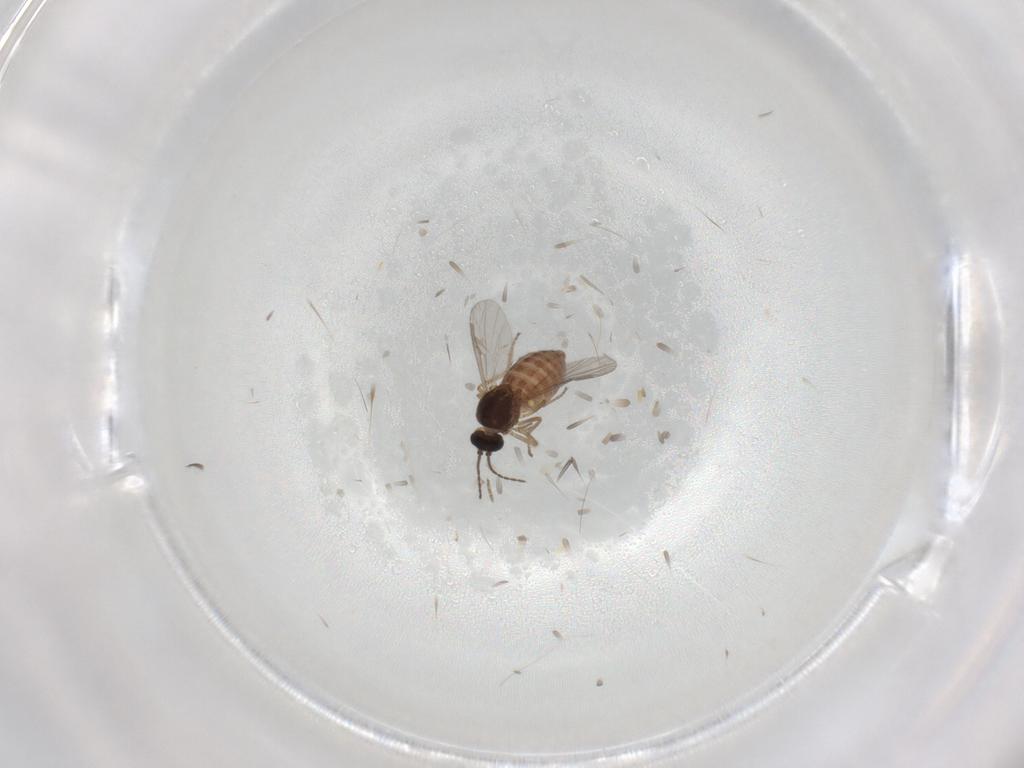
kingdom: Animalia
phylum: Arthropoda
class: Insecta
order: Diptera
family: Ceratopogonidae
